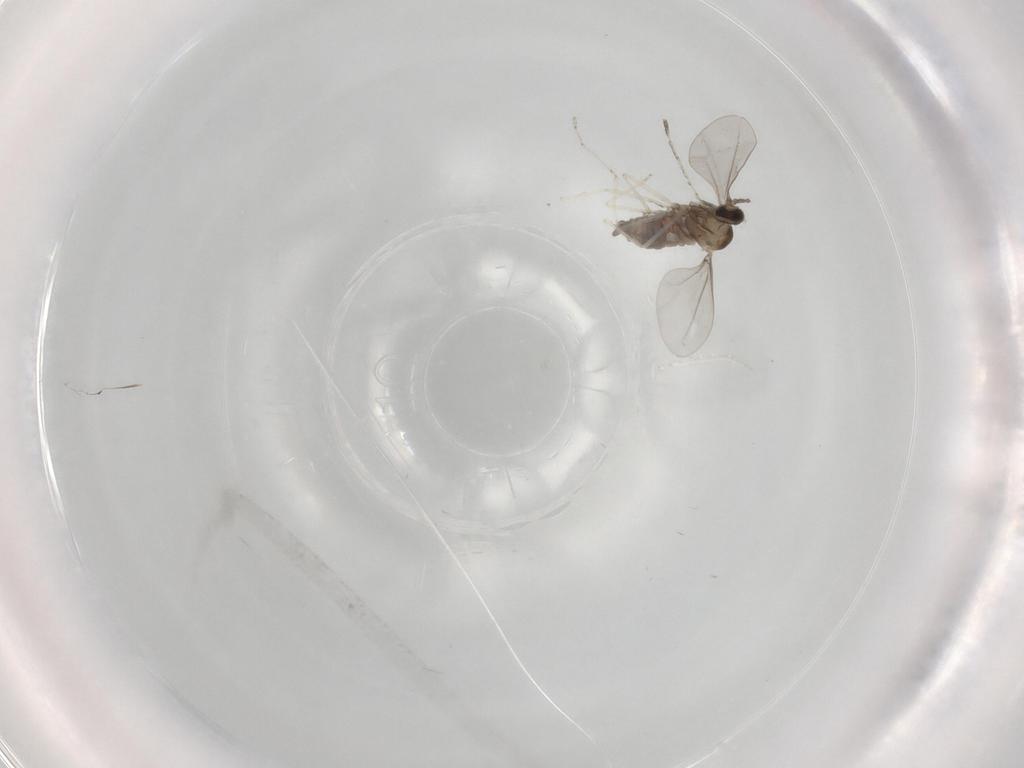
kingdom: Animalia
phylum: Arthropoda
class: Insecta
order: Diptera
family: Cecidomyiidae
